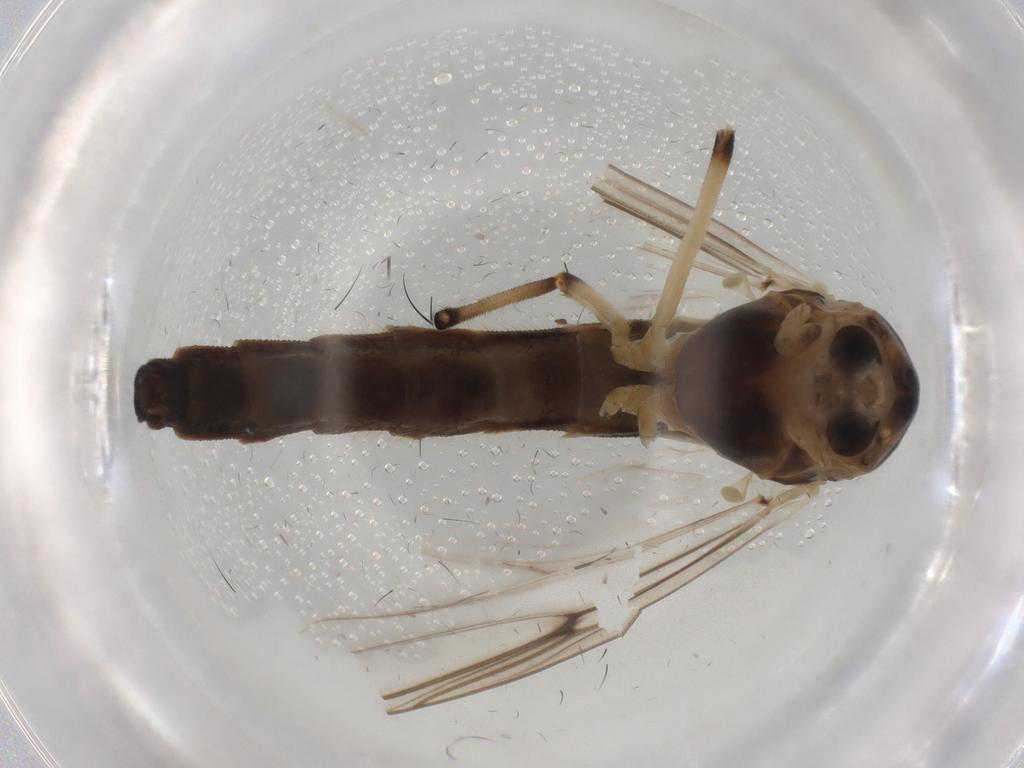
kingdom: Animalia
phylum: Arthropoda
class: Insecta
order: Diptera
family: Chironomidae
